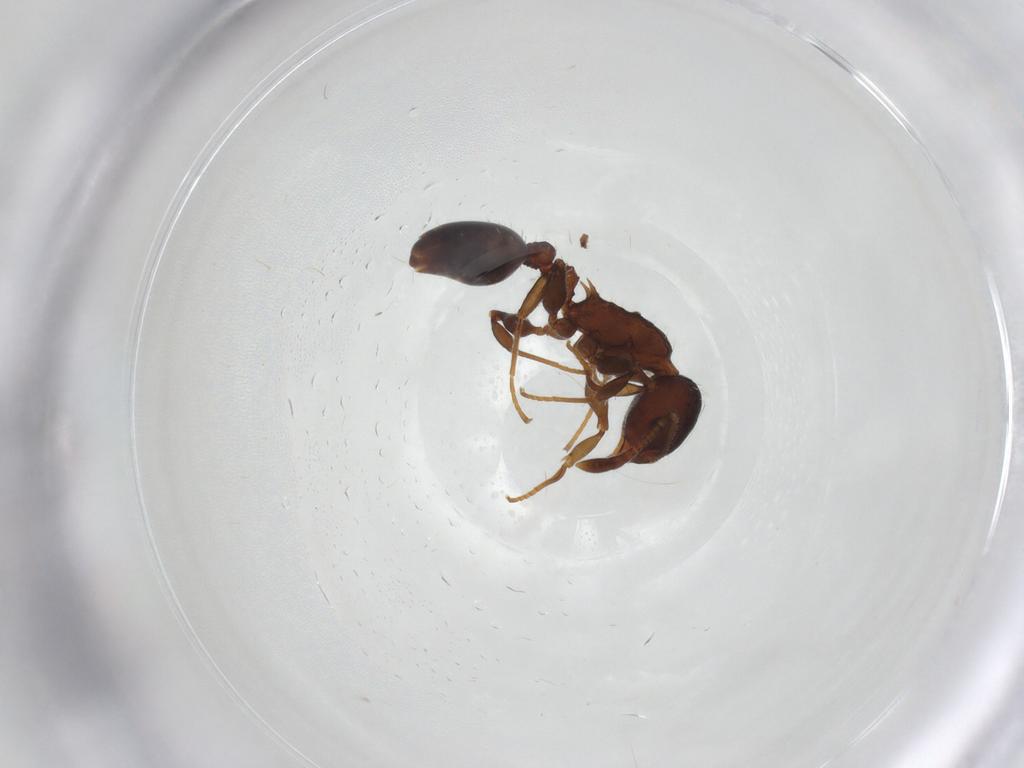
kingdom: Animalia
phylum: Arthropoda
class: Insecta
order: Hymenoptera
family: Formicidae
